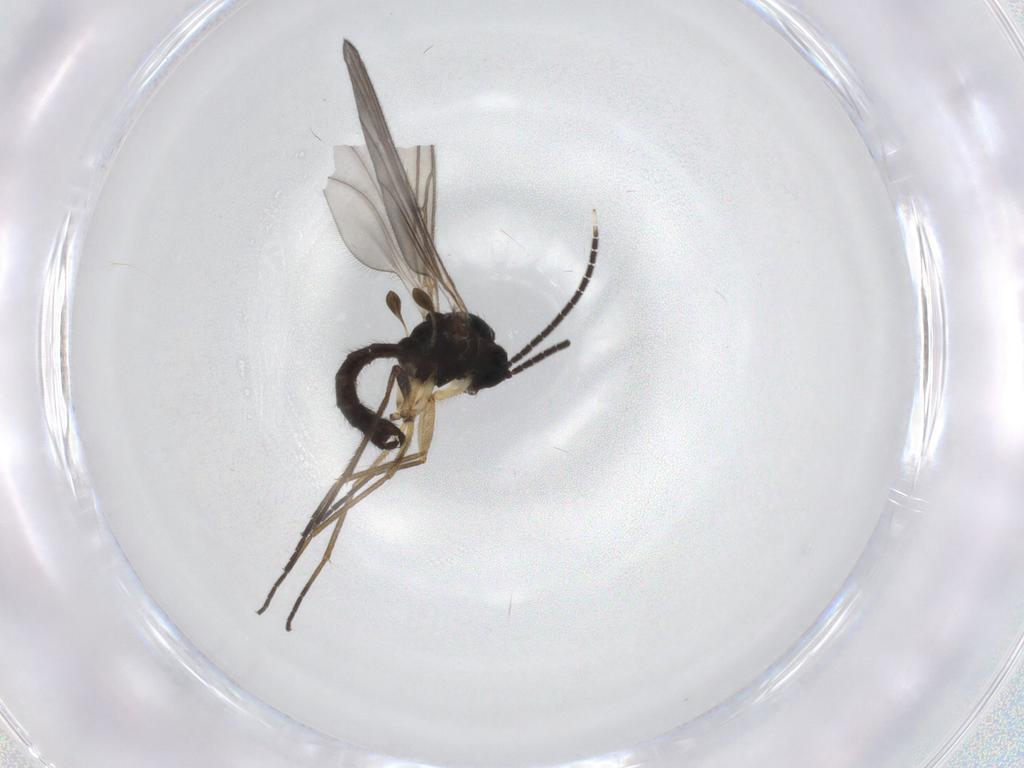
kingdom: Animalia
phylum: Arthropoda
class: Insecta
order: Diptera
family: Sciaridae
